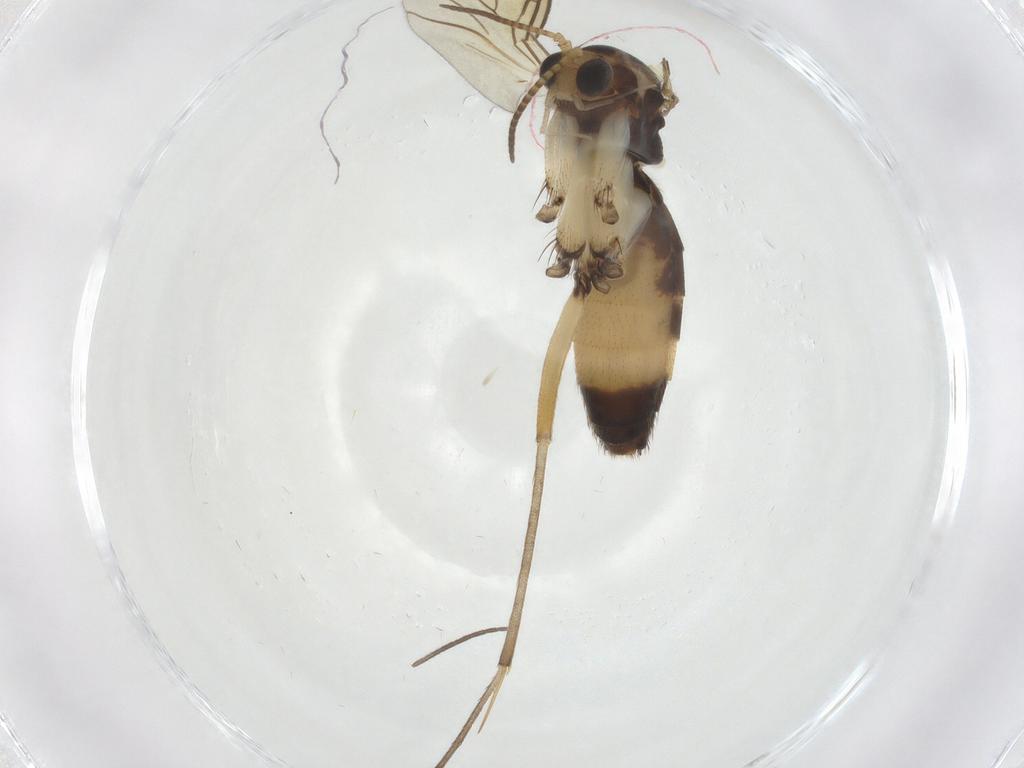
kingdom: Animalia
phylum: Arthropoda
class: Insecta
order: Diptera
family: Mycetophilidae
